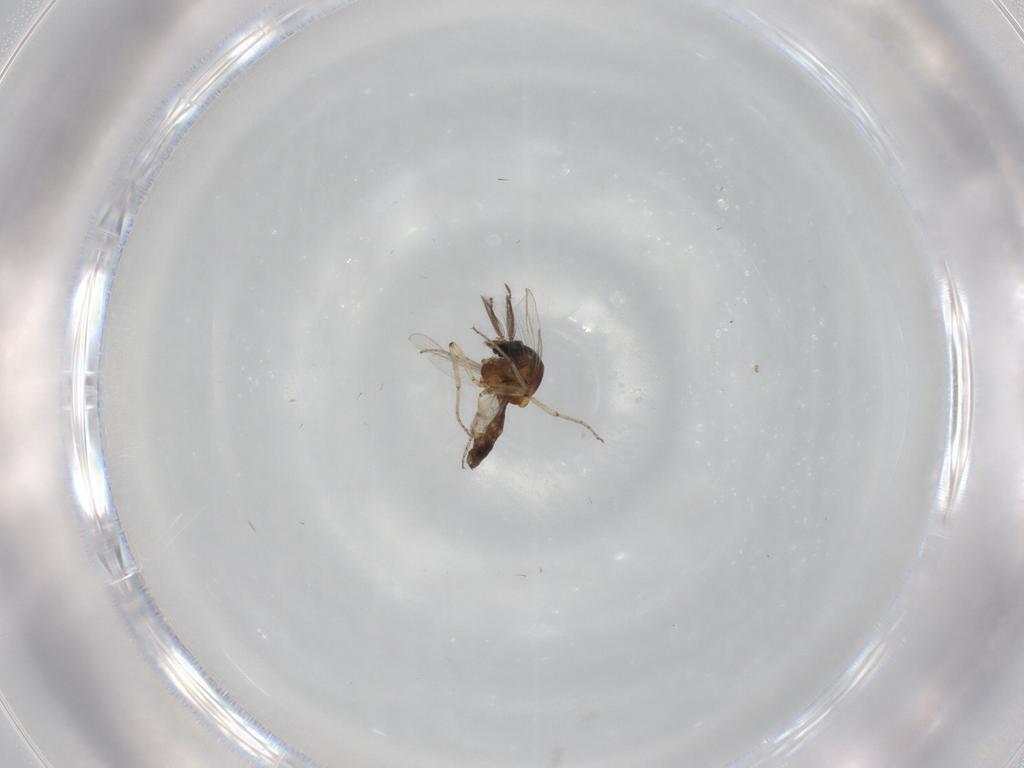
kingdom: Animalia
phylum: Arthropoda
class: Insecta
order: Diptera
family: Ceratopogonidae
